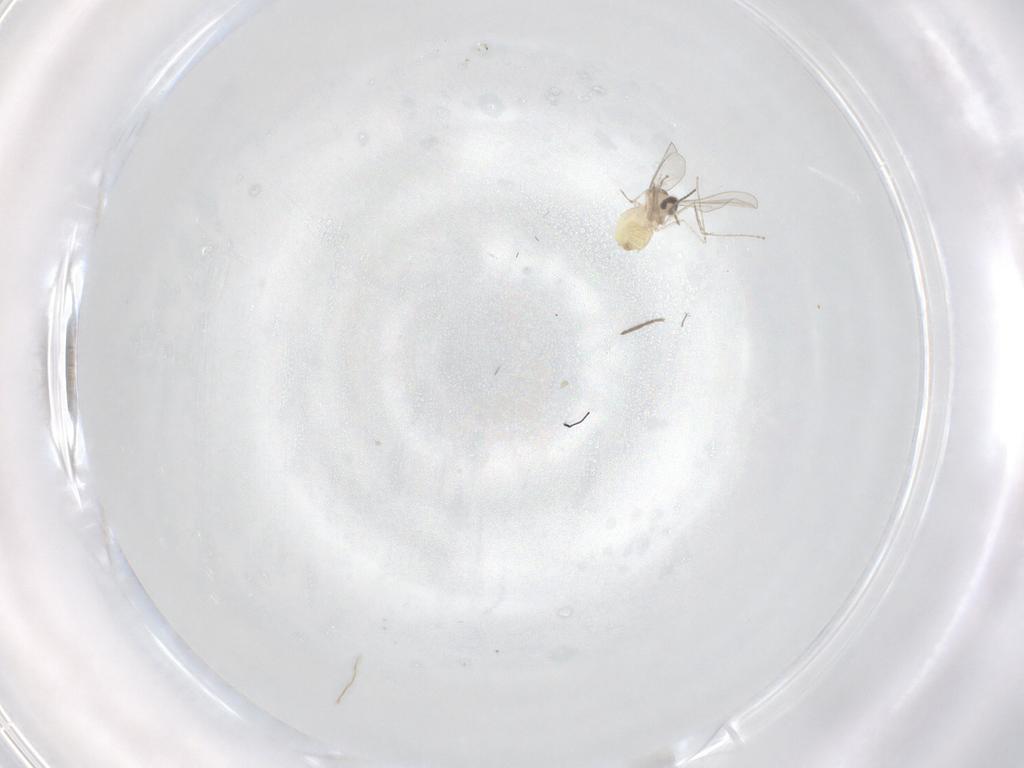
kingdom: Animalia
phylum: Arthropoda
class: Insecta
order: Diptera
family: Cecidomyiidae
